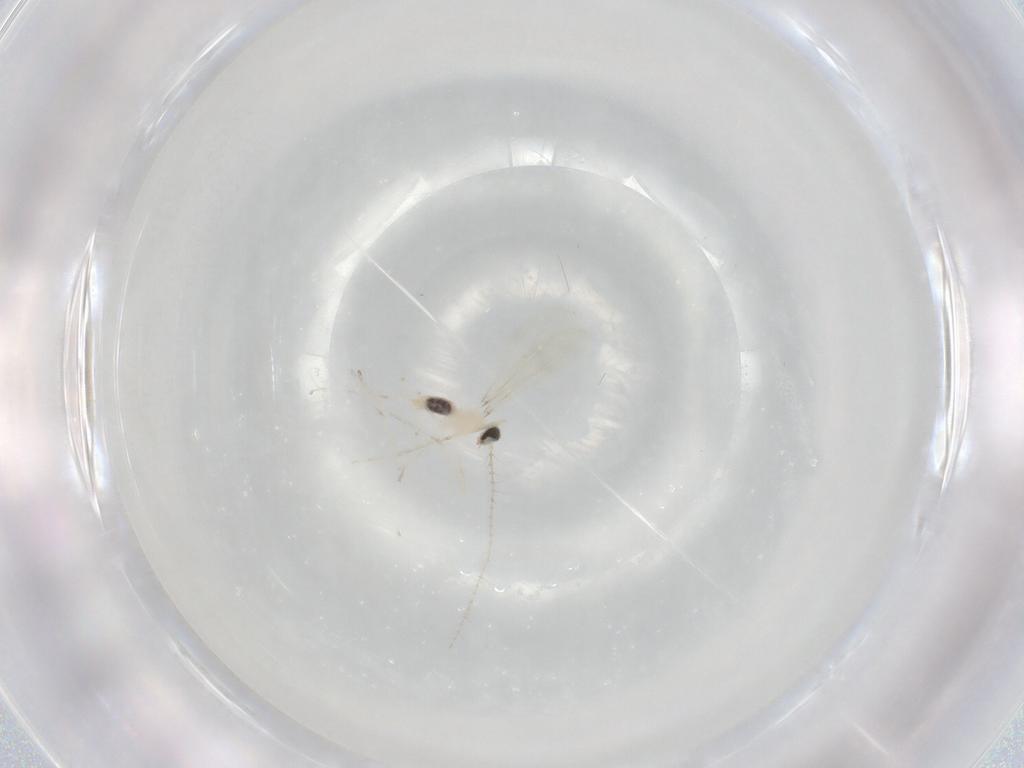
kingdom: Animalia
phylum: Arthropoda
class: Insecta
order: Diptera
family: Cecidomyiidae
